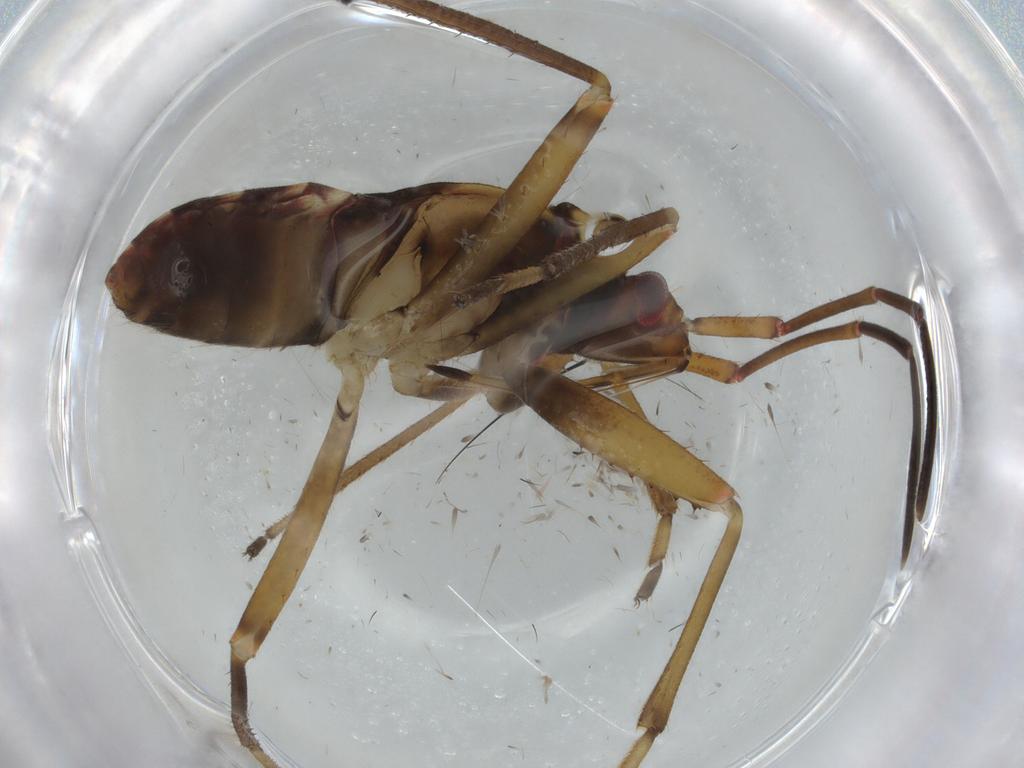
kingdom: Animalia
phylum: Arthropoda
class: Insecta
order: Hemiptera
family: Rhyparochromidae
